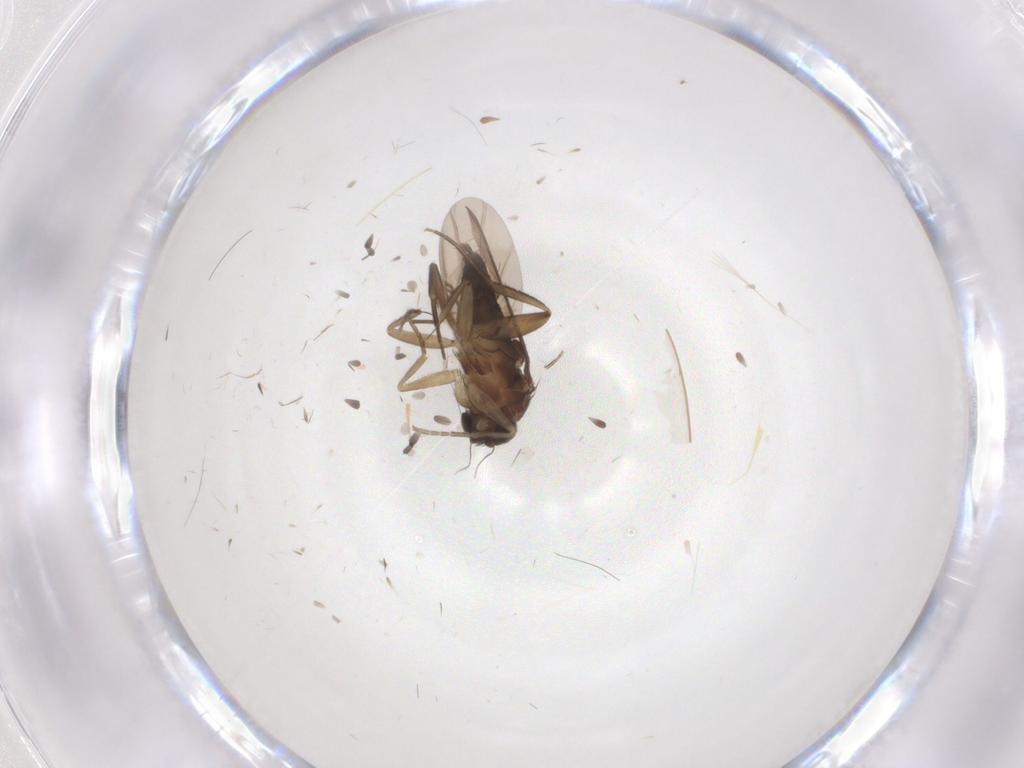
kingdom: Animalia
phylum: Arthropoda
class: Insecta
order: Diptera
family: Phoridae
